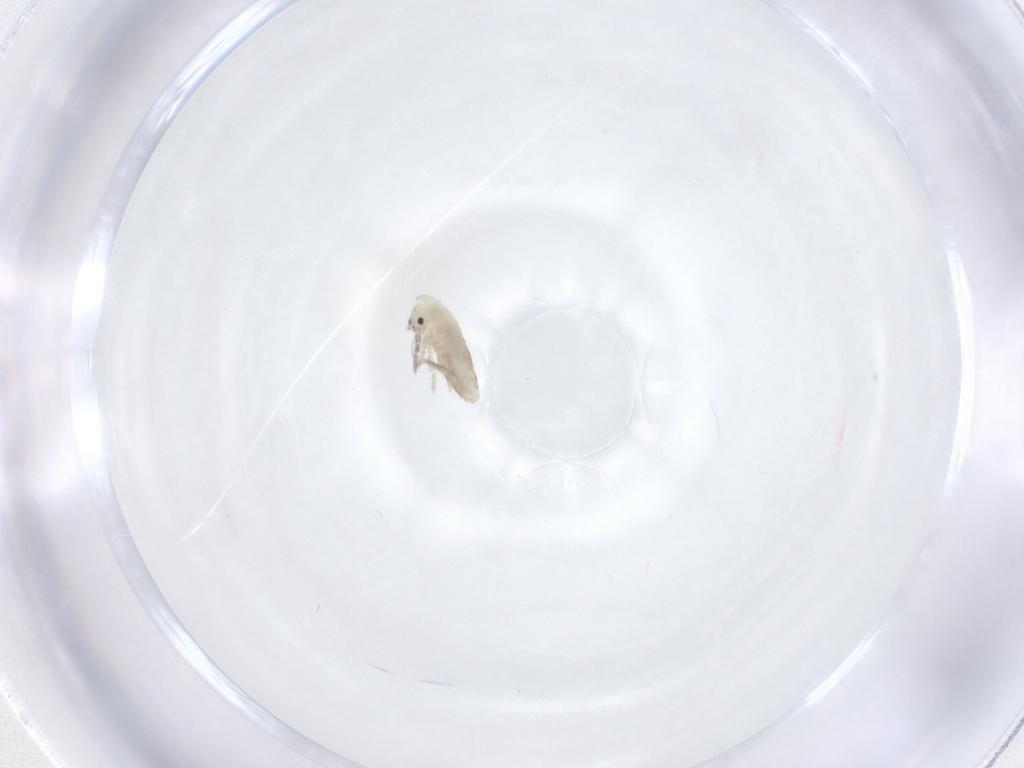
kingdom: Animalia
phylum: Arthropoda
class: Collembola
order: Entomobryomorpha
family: Entomobryidae
